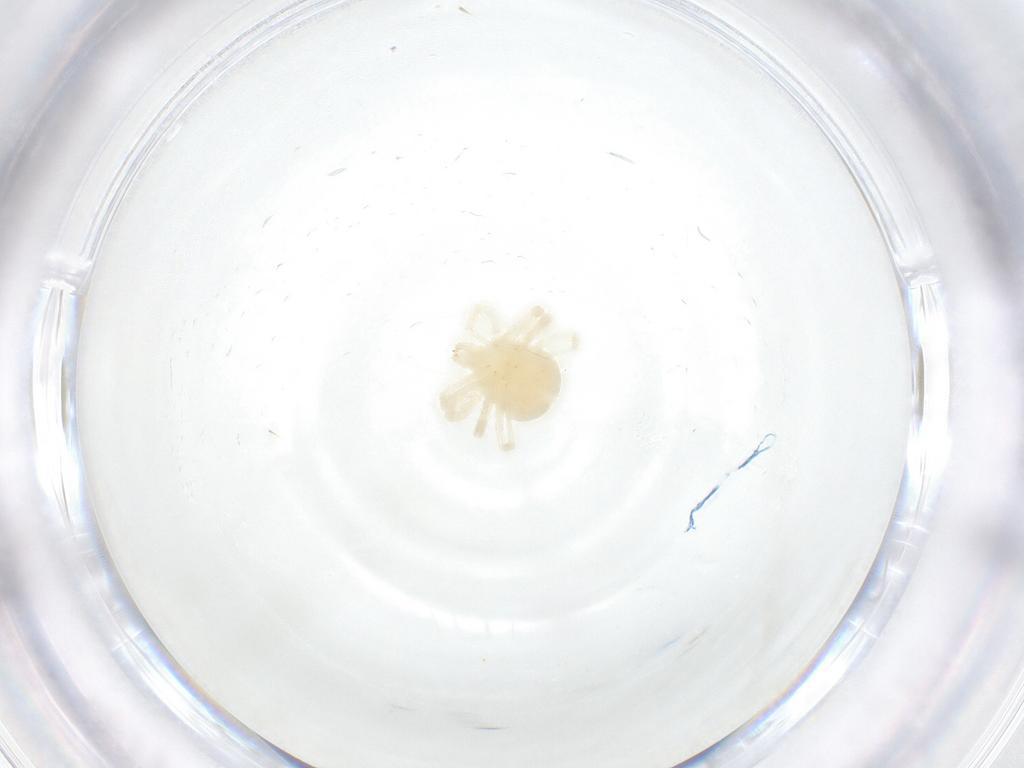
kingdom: Animalia
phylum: Arthropoda
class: Arachnida
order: Trombidiformes
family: Anystidae
